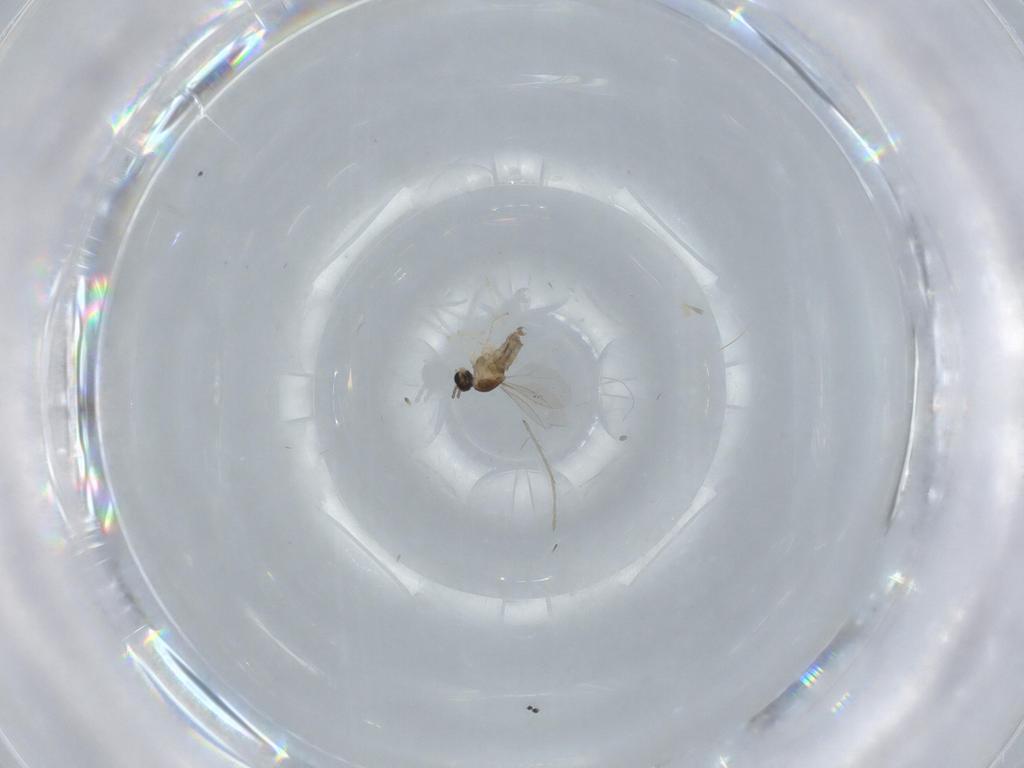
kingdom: Animalia
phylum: Arthropoda
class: Insecta
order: Diptera
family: Cecidomyiidae
